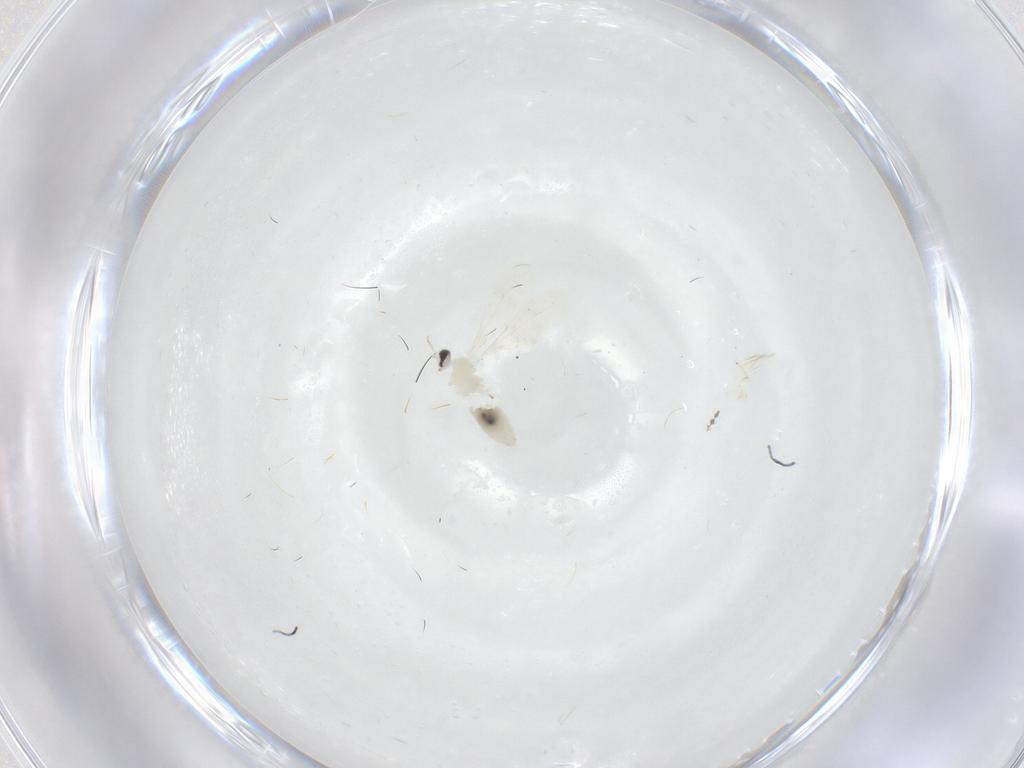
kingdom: Animalia
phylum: Arthropoda
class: Insecta
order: Diptera
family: Cecidomyiidae
